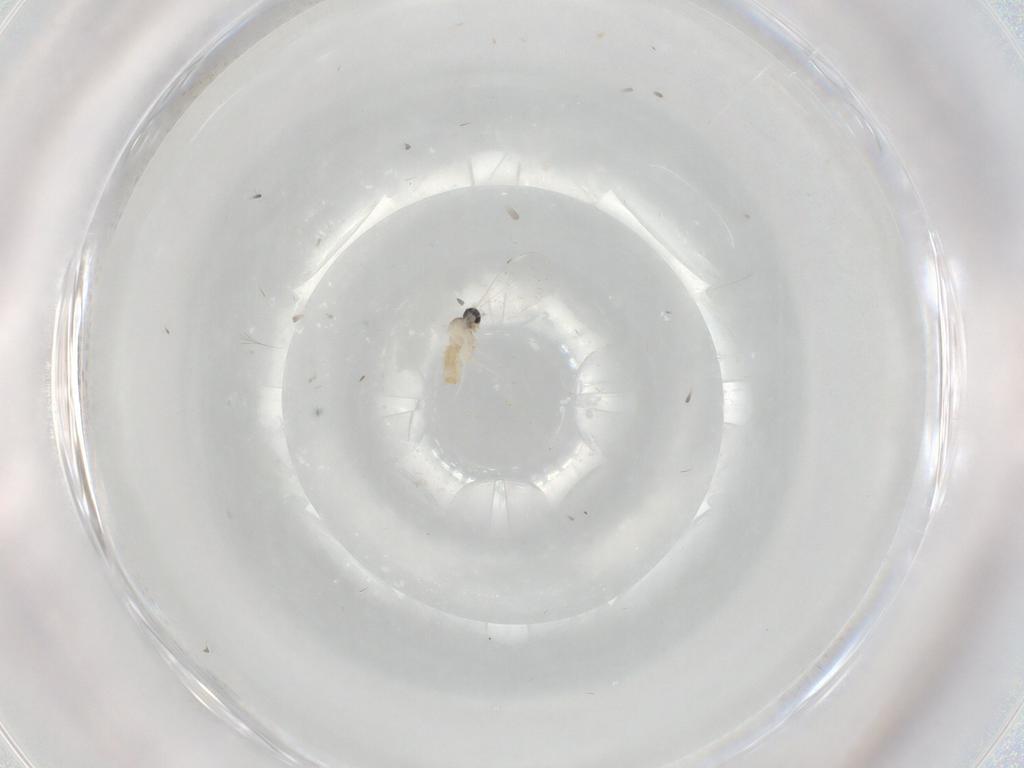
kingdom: Animalia
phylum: Arthropoda
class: Insecta
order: Diptera
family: Cecidomyiidae
